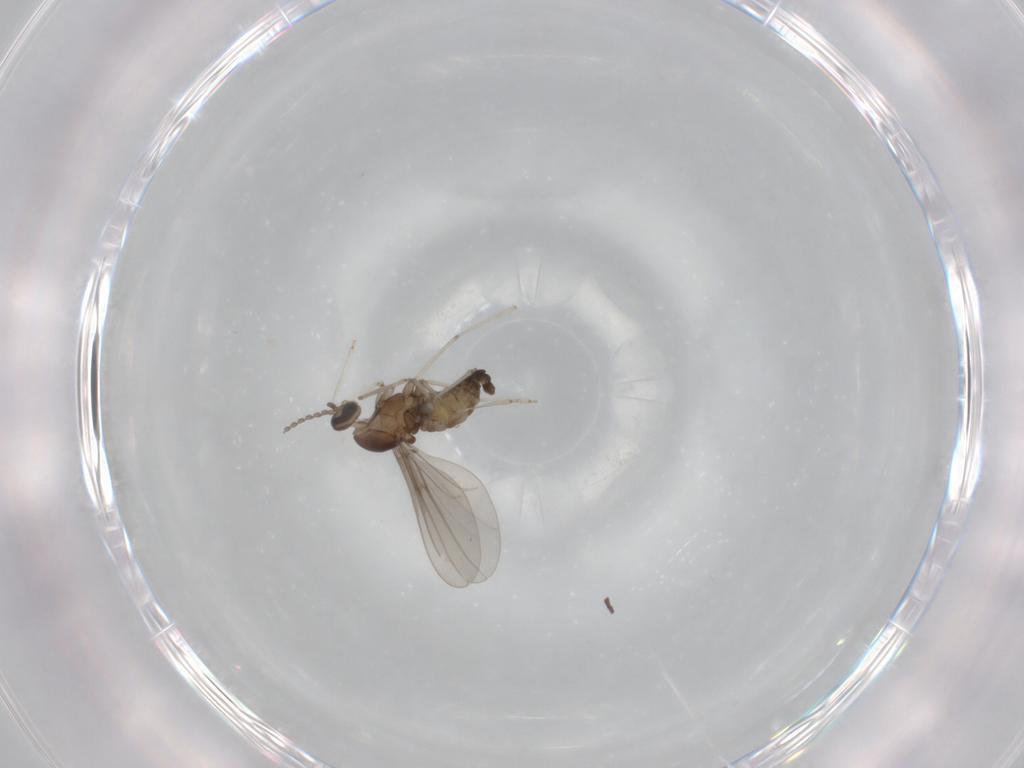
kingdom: Animalia
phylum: Arthropoda
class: Insecta
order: Diptera
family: Cecidomyiidae
